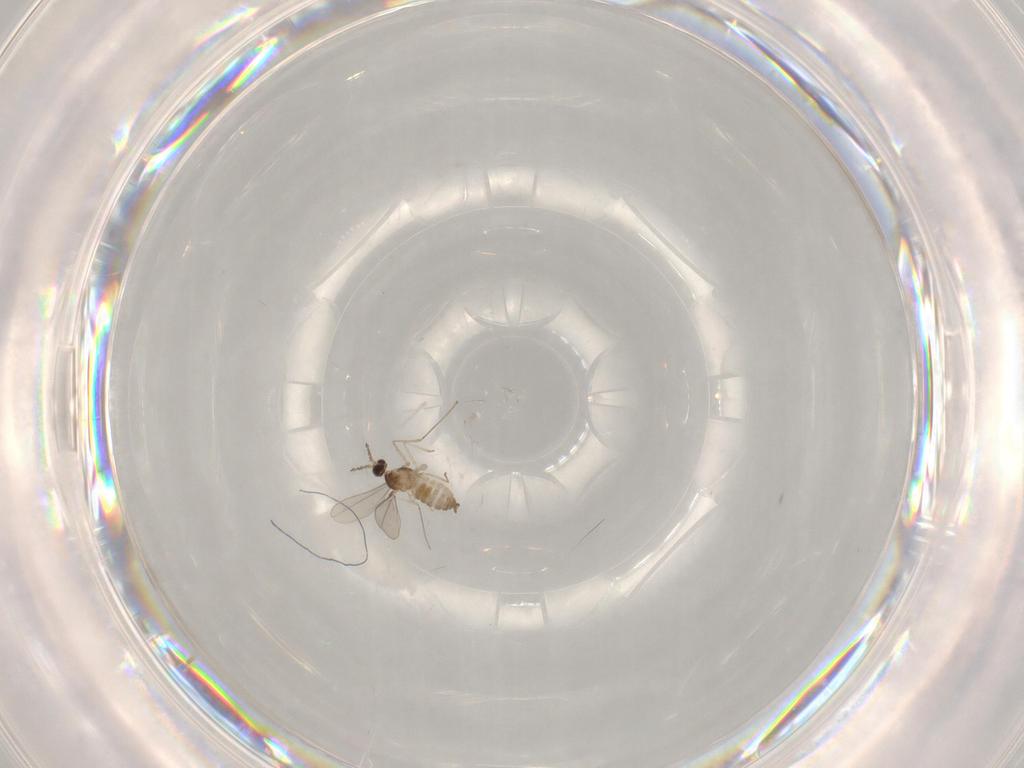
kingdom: Animalia
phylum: Arthropoda
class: Insecta
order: Diptera
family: Cecidomyiidae
